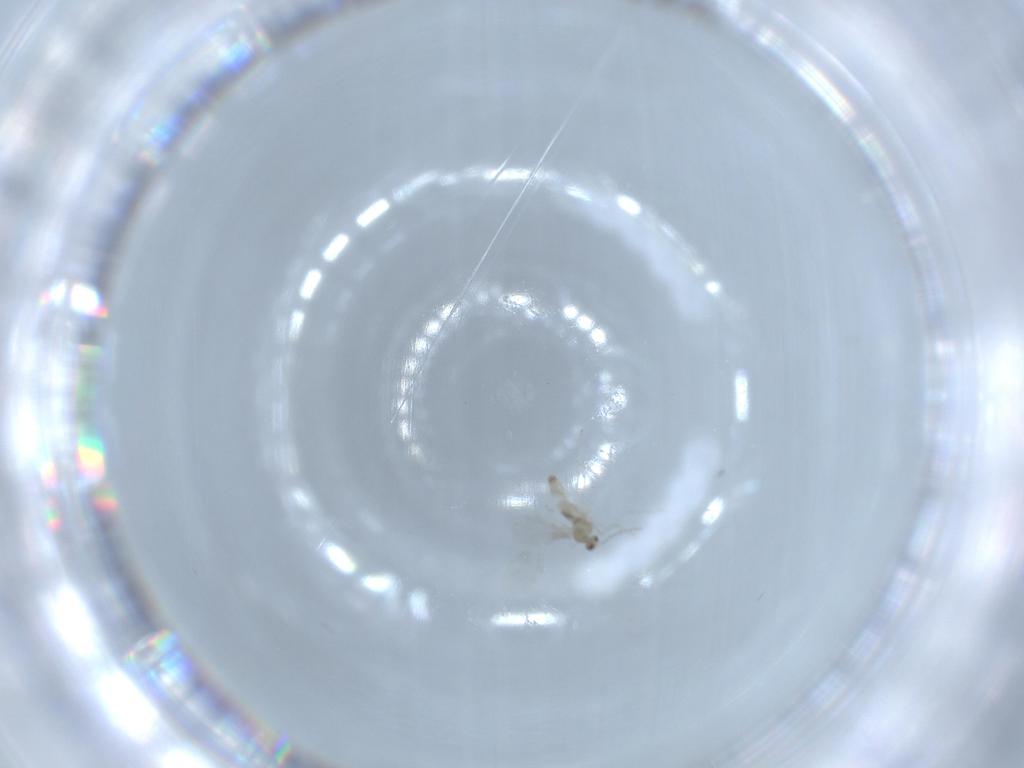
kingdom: Animalia
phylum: Arthropoda
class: Insecta
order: Diptera
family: Cecidomyiidae
